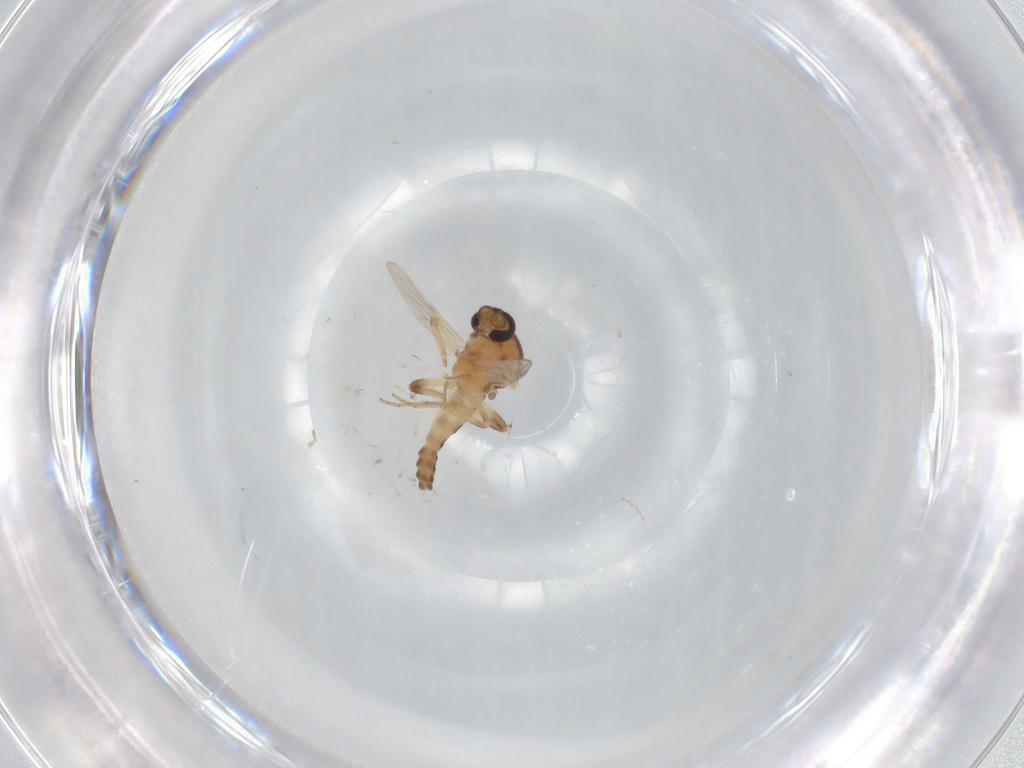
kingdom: Animalia
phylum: Arthropoda
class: Insecta
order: Diptera
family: Ceratopogonidae
